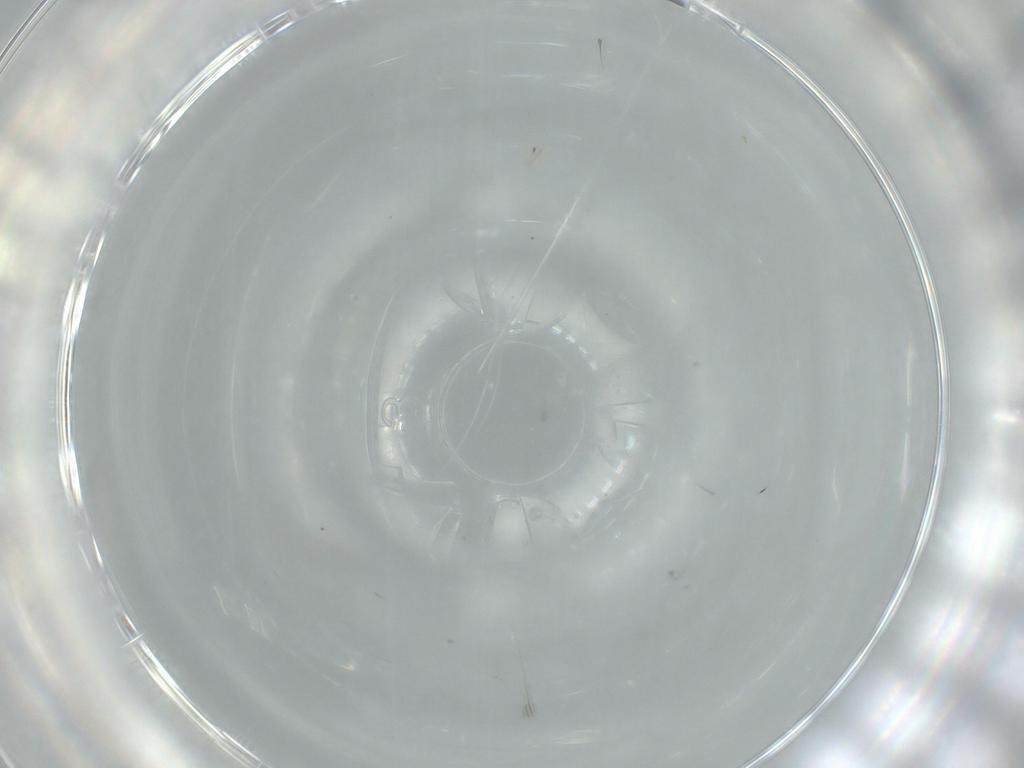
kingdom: Animalia
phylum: Arthropoda
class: Insecta
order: Diptera
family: Cecidomyiidae
